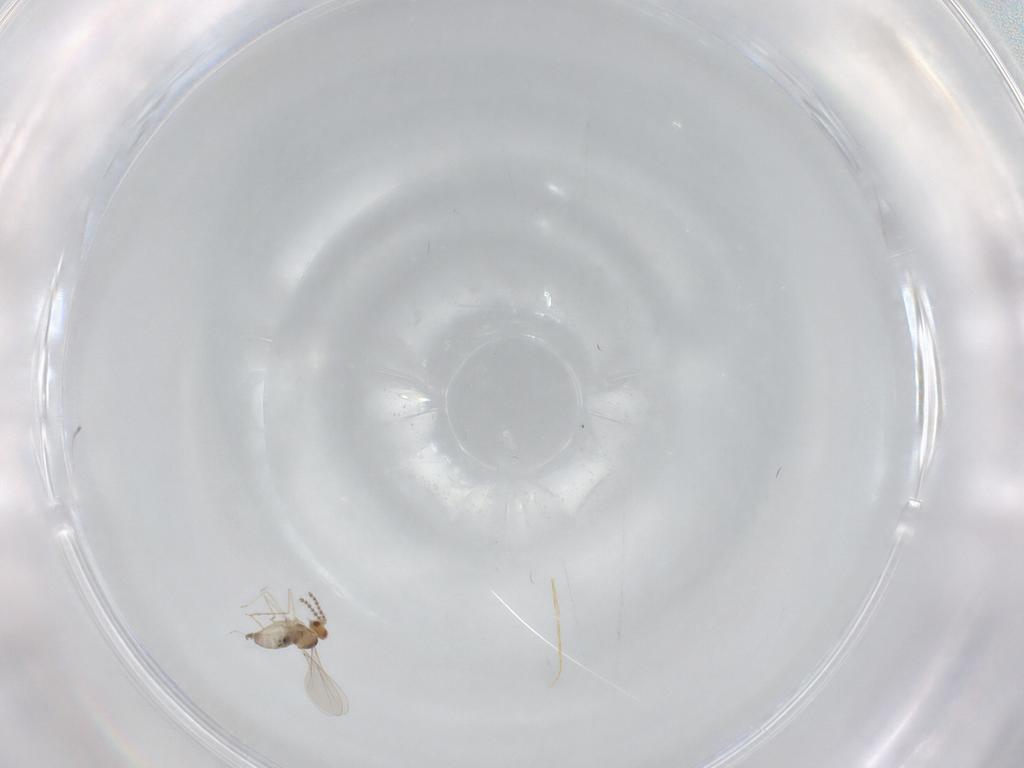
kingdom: Animalia
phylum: Arthropoda
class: Insecta
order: Diptera
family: Cecidomyiidae
